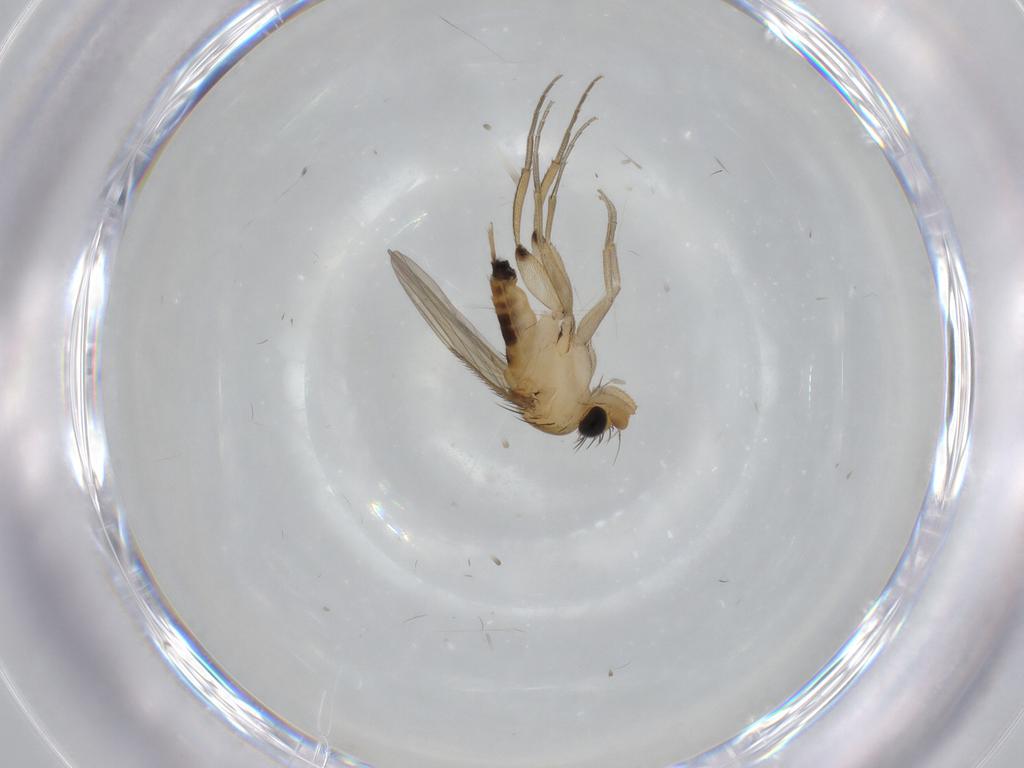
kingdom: Animalia
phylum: Arthropoda
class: Insecta
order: Diptera
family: Phoridae
